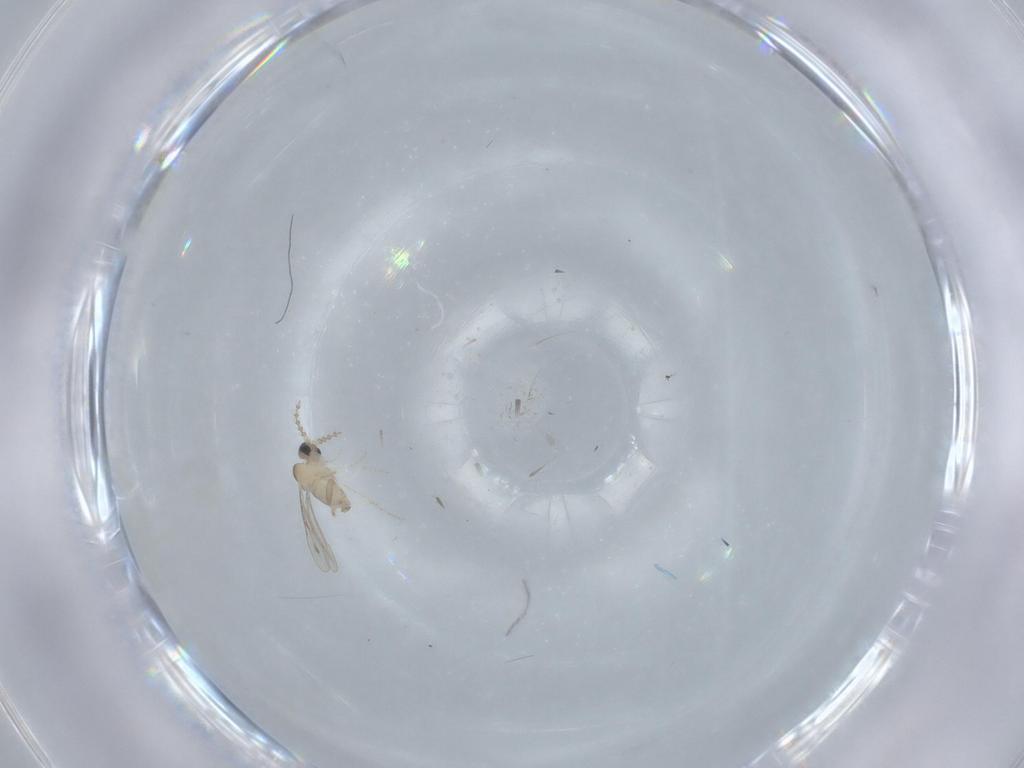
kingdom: Animalia
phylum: Arthropoda
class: Insecta
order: Diptera
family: Cecidomyiidae
